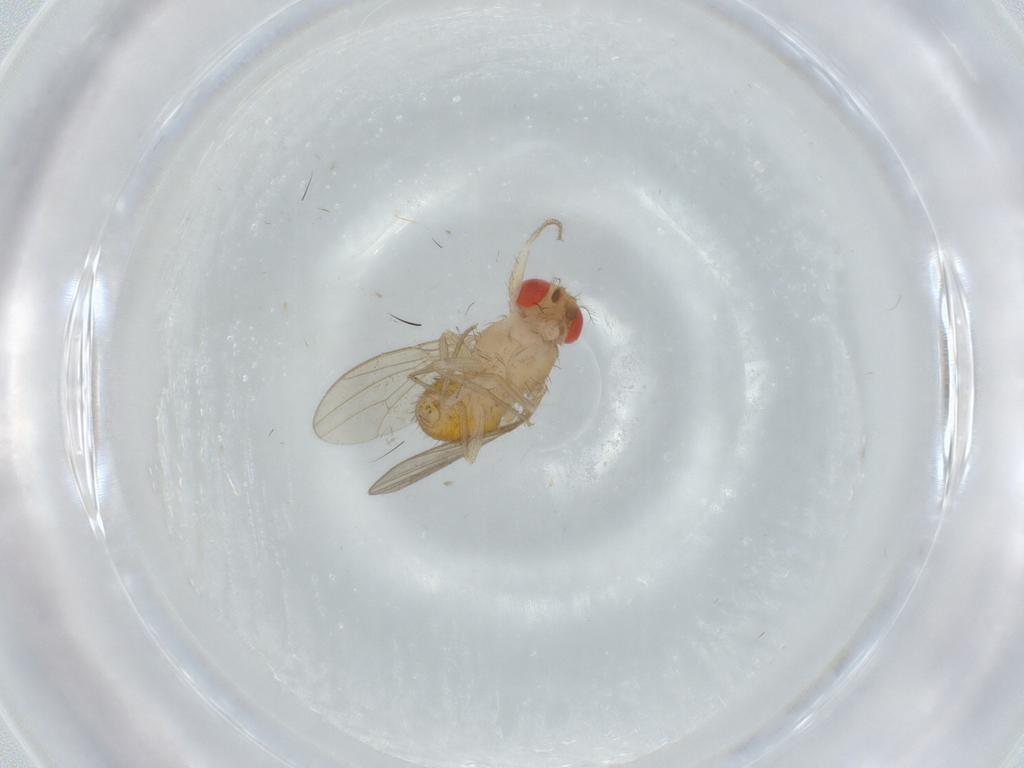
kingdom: Animalia
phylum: Arthropoda
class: Insecta
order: Diptera
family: Drosophilidae
